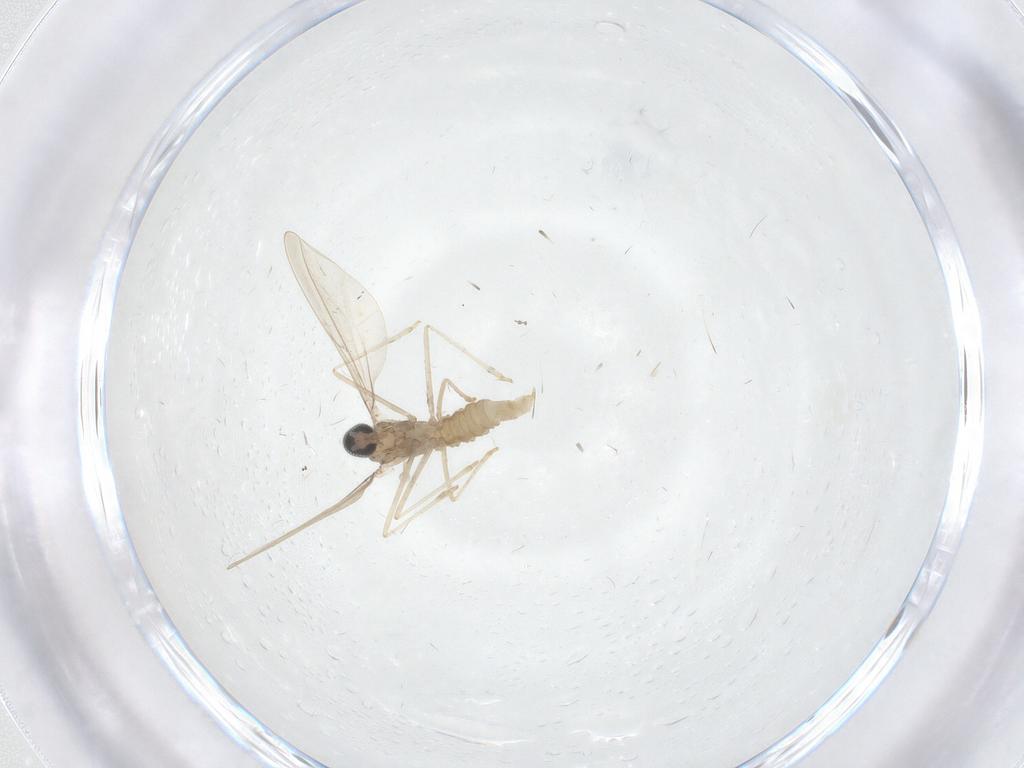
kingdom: Animalia
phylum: Arthropoda
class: Insecta
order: Diptera
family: Cecidomyiidae
